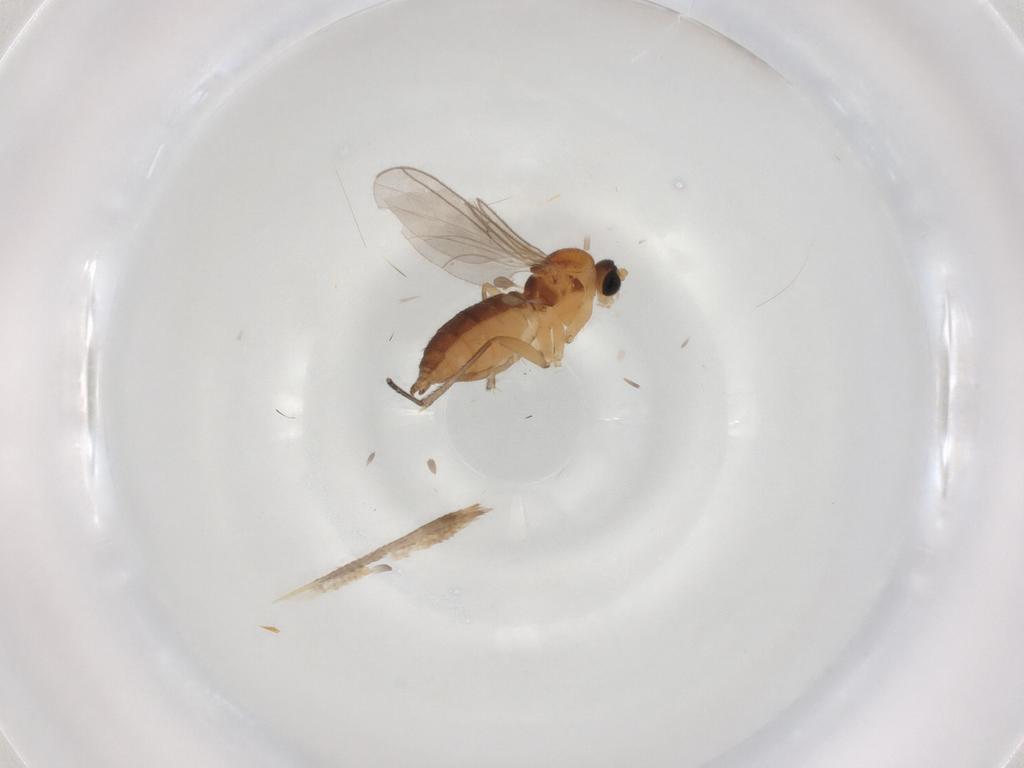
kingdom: Animalia
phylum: Arthropoda
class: Insecta
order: Diptera
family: Sciaridae
